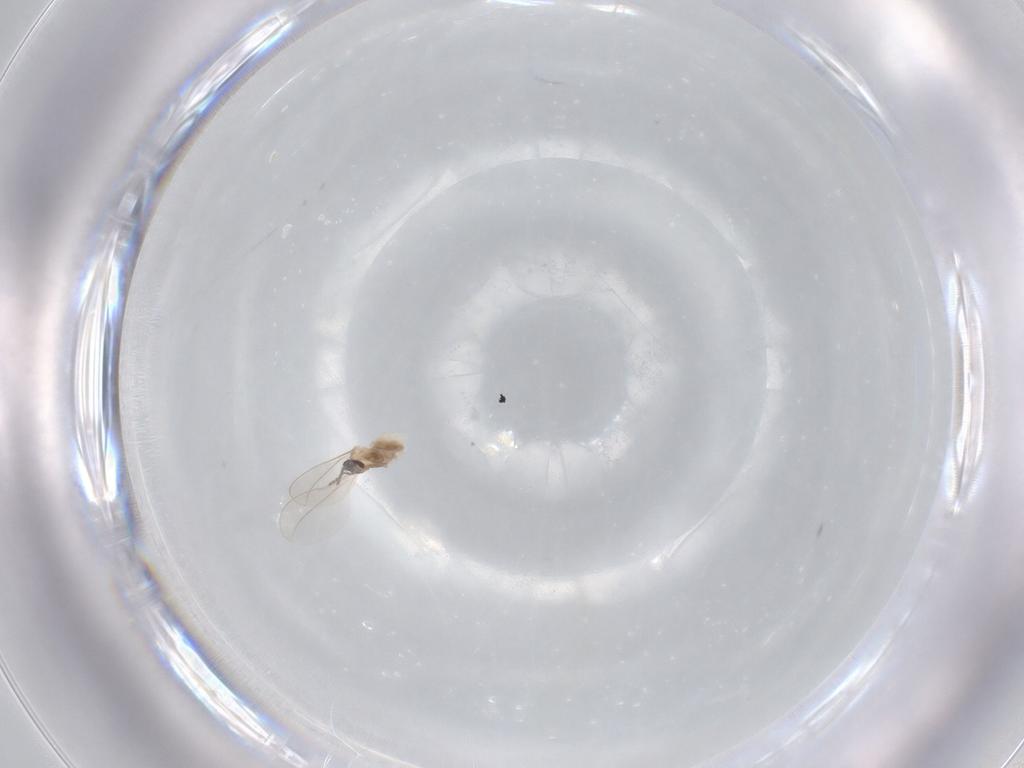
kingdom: Animalia
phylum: Arthropoda
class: Insecta
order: Diptera
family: Cecidomyiidae
